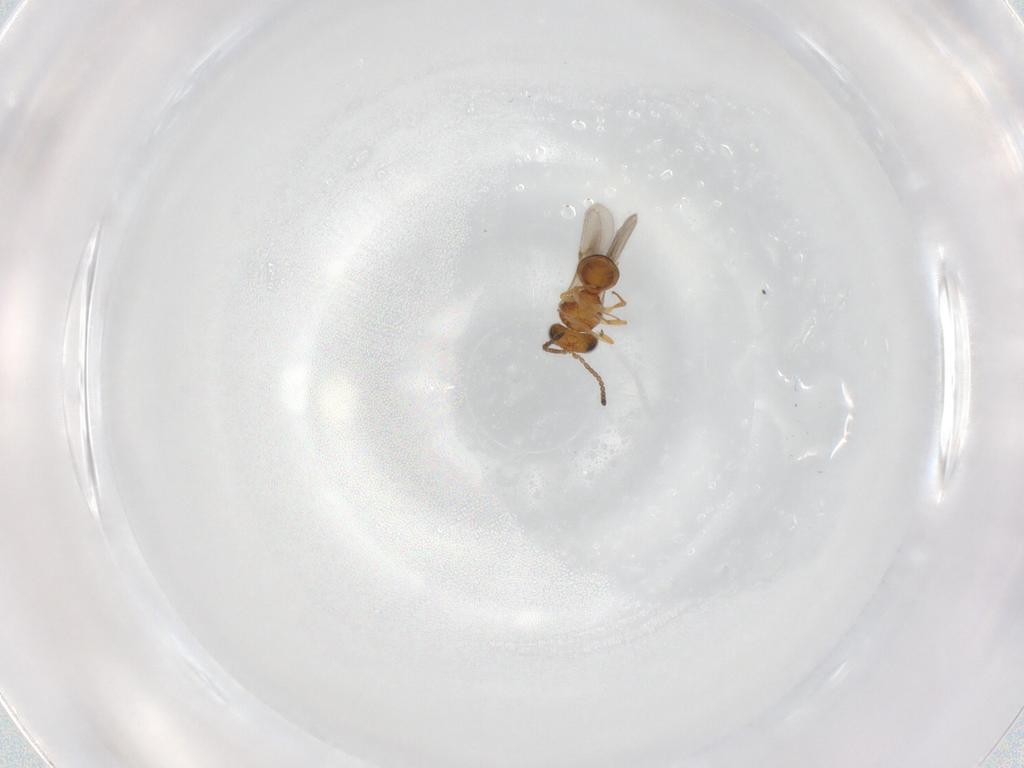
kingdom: Animalia
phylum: Arthropoda
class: Insecta
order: Hymenoptera
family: Scelionidae
